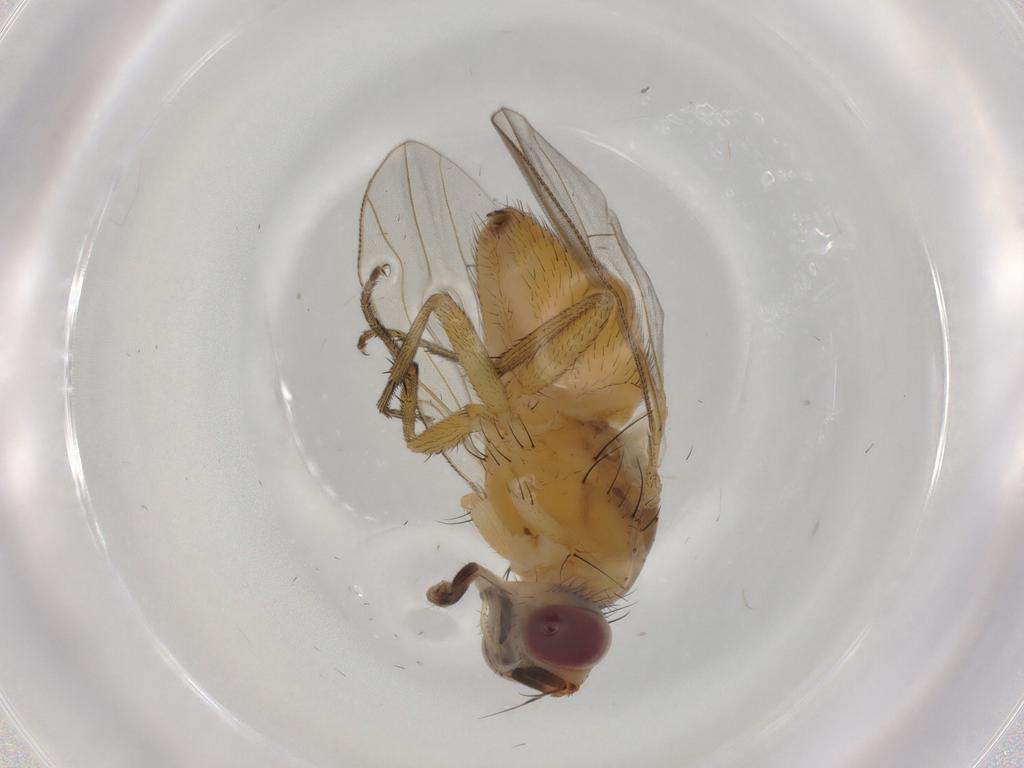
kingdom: Animalia
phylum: Arthropoda
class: Insecta
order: Diptera
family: Muscidae
